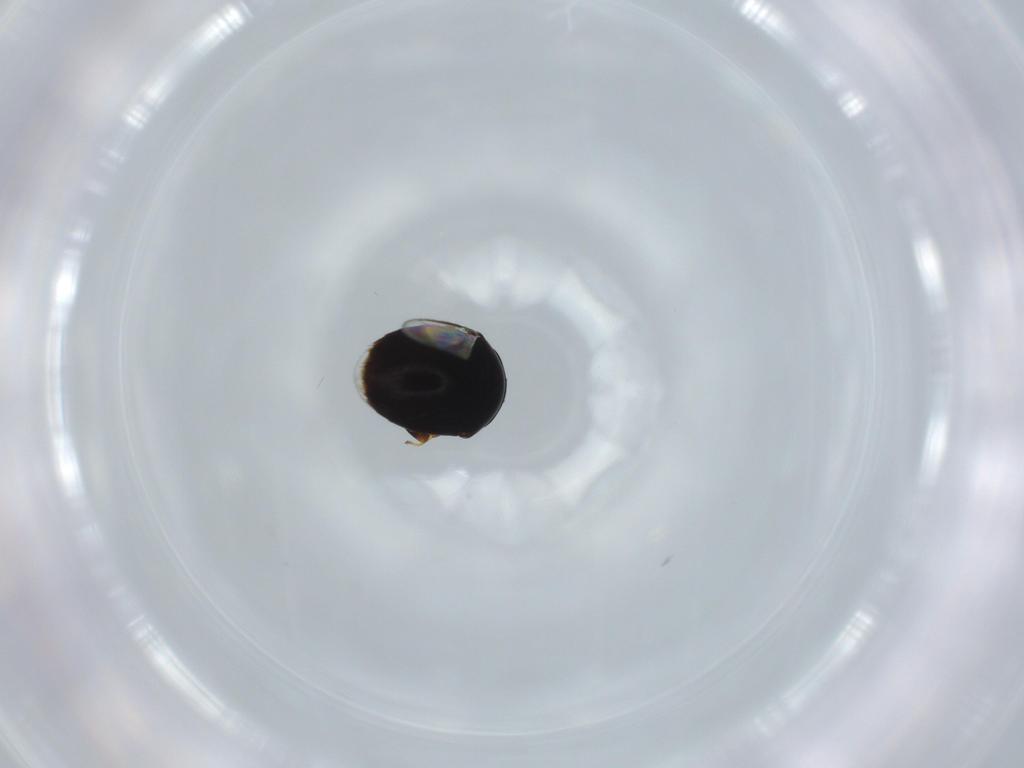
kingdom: Animalia
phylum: Arthropoda
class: Insecta
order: Hymenoptera
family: Aphelinidae
